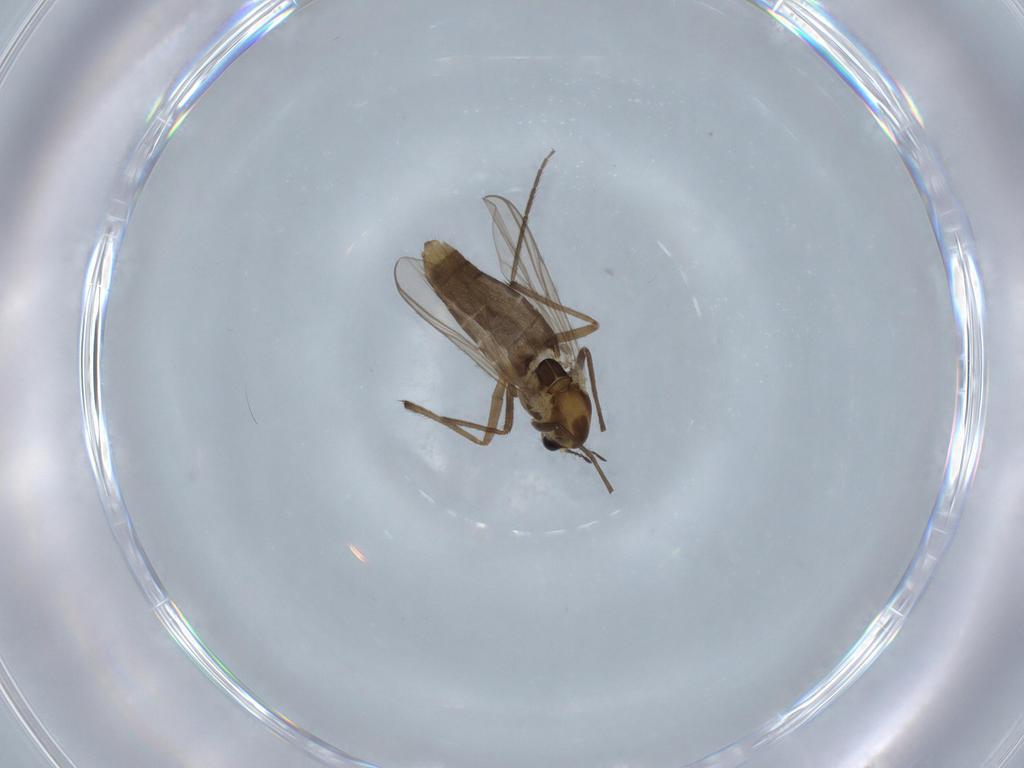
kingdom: Animalia
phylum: Arthropoda
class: Insecta
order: Diptera
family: Chironomidae
